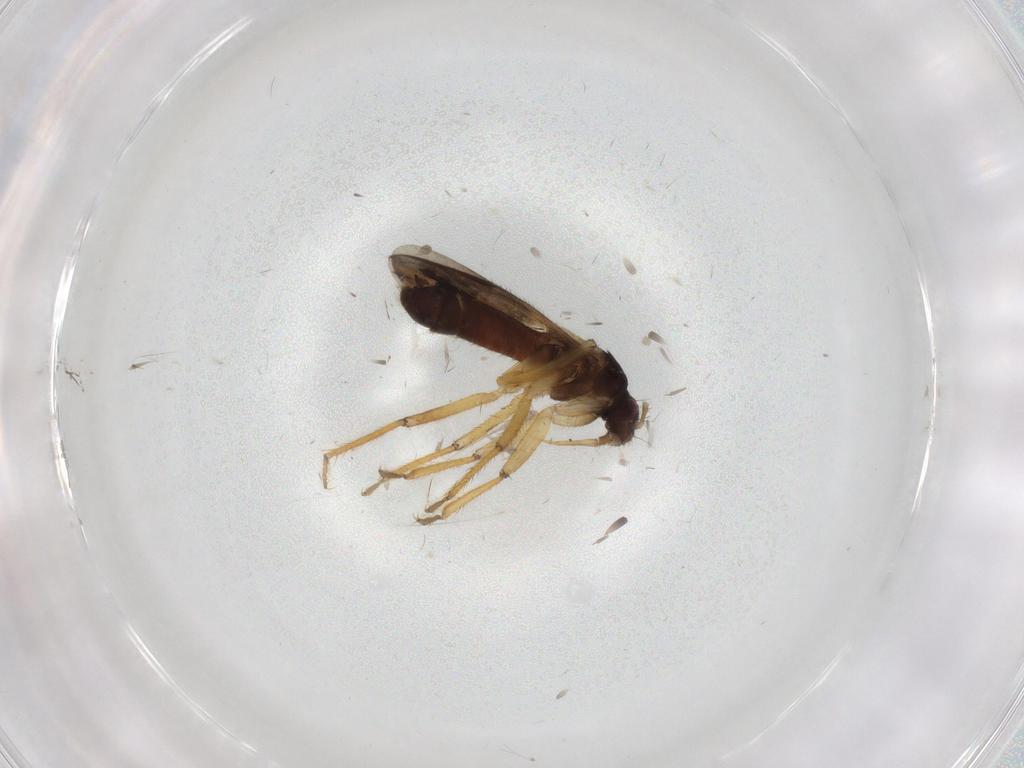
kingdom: Animalia
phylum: Arthropoda
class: Insecta
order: Hemiptera
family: Ceratocombidae
